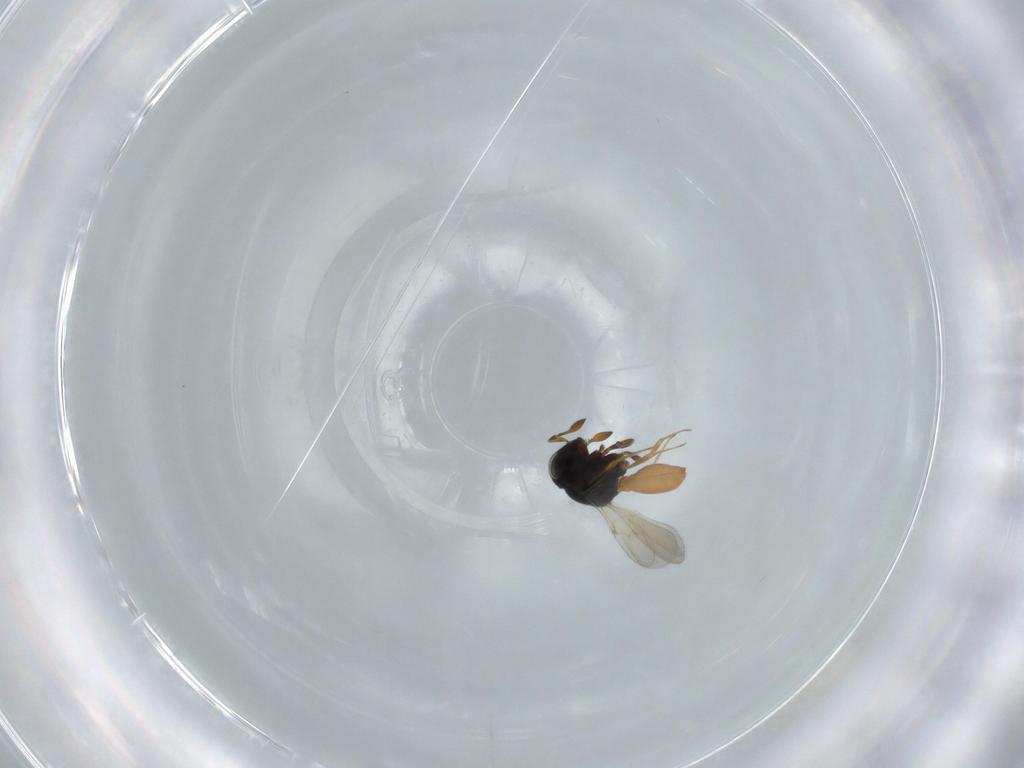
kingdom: Animalia
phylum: Arthropoda
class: Insecta
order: Hymenoptera
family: Scelionidae
